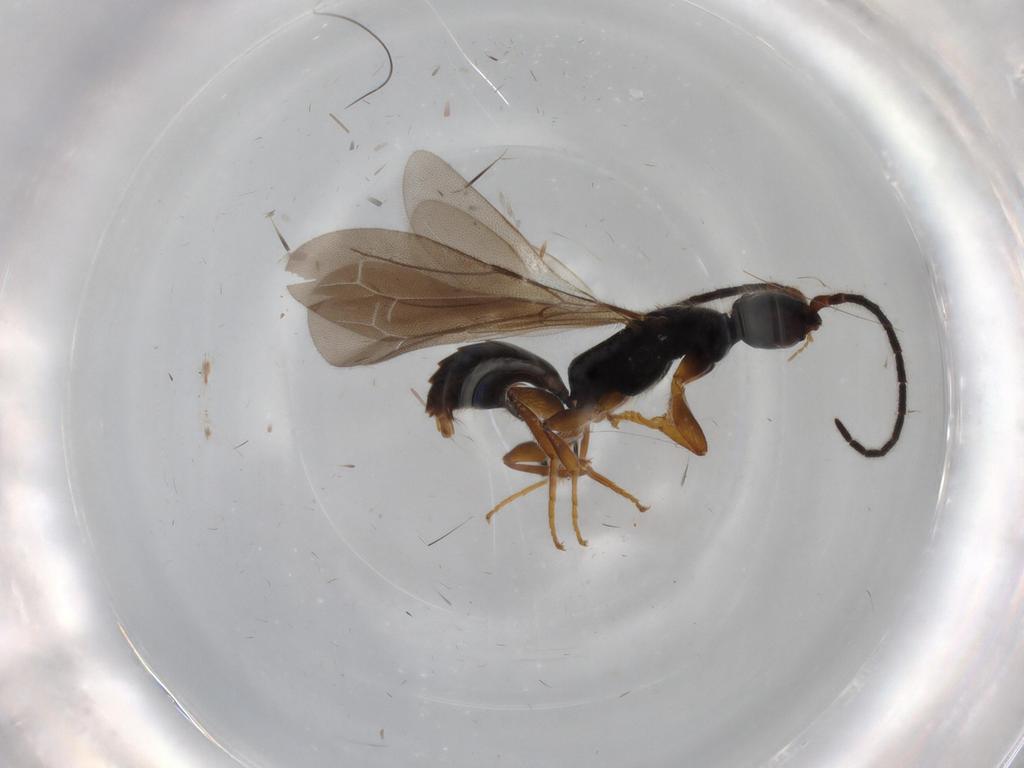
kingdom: Animalia
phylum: Arthropoda
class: Insecta
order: Hymenoptera
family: Bethylidae
